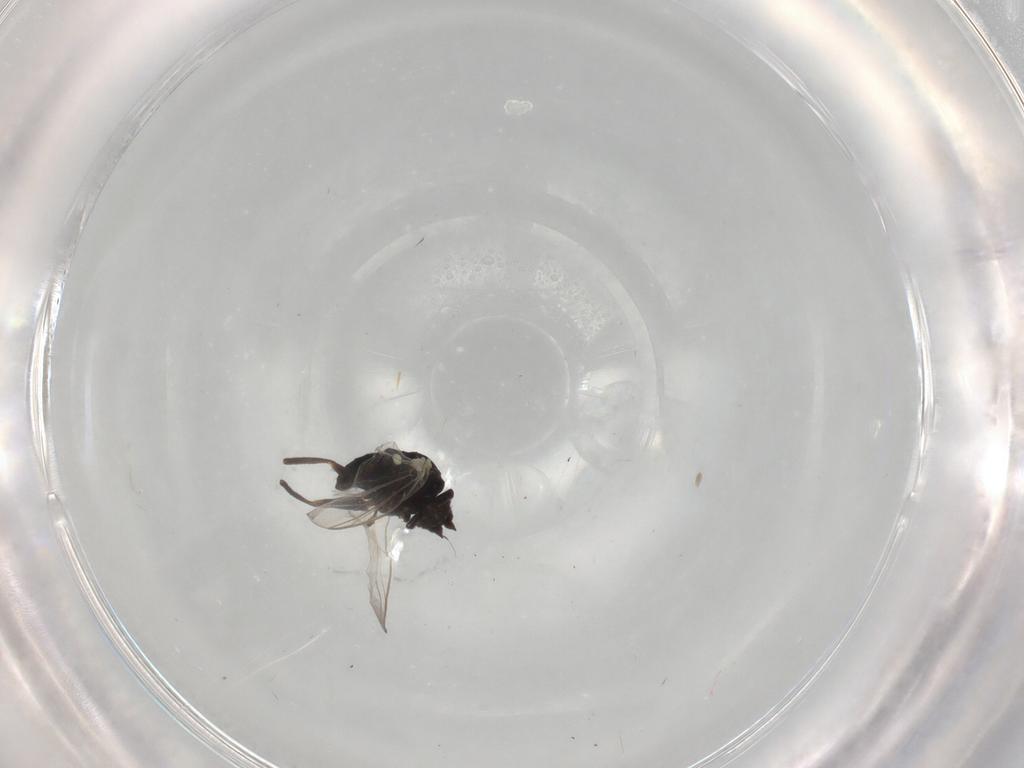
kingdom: Animalia
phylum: Arthropoda
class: Insecta
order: Diptera
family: Agromyzidae
